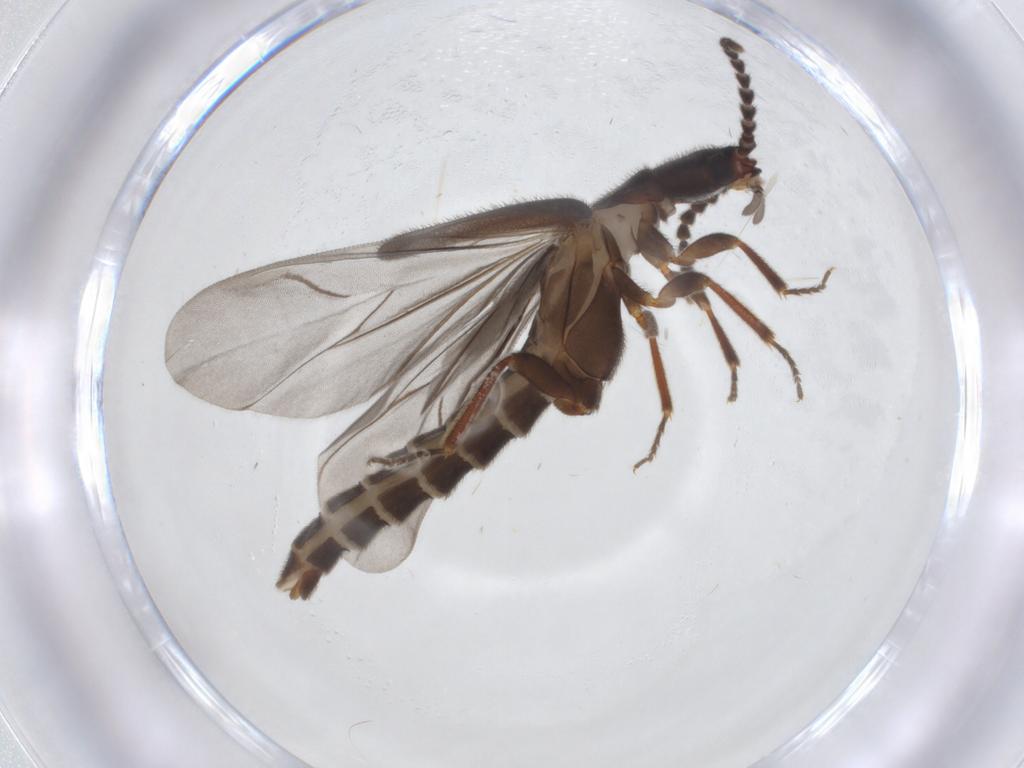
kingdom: Animalia
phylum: Arthropoda
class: Insecta
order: Coleoptera
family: Omethidae
